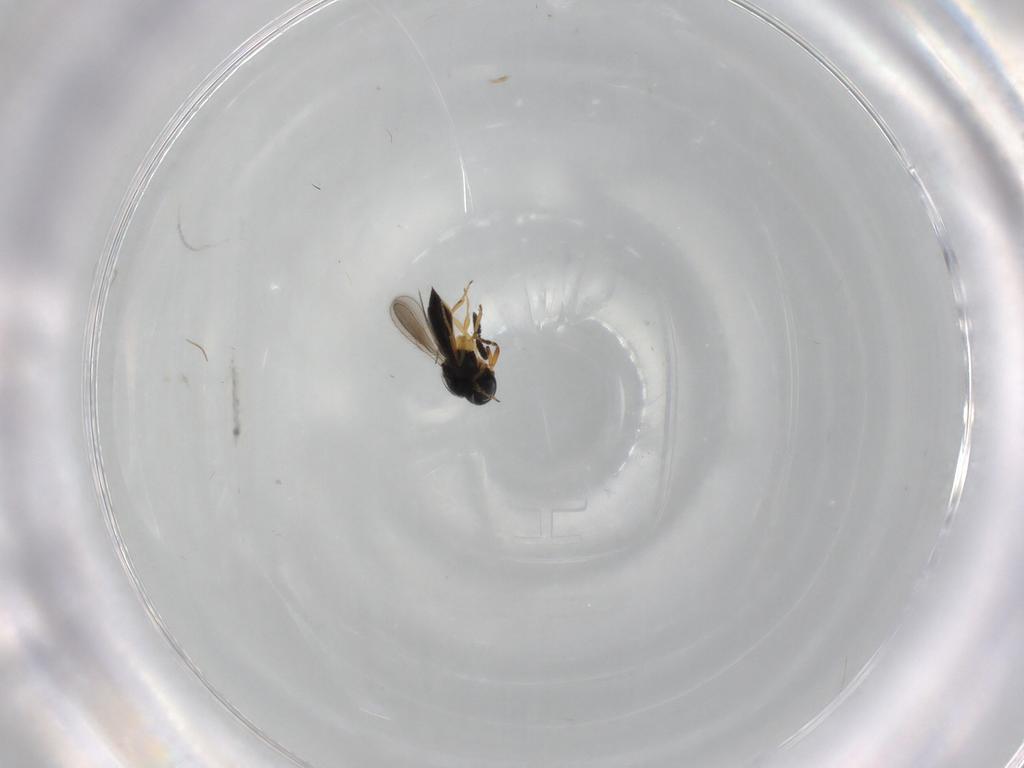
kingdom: Animalia
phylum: Arthropoda
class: Insecta
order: Hymenoptera
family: Scelionidae
